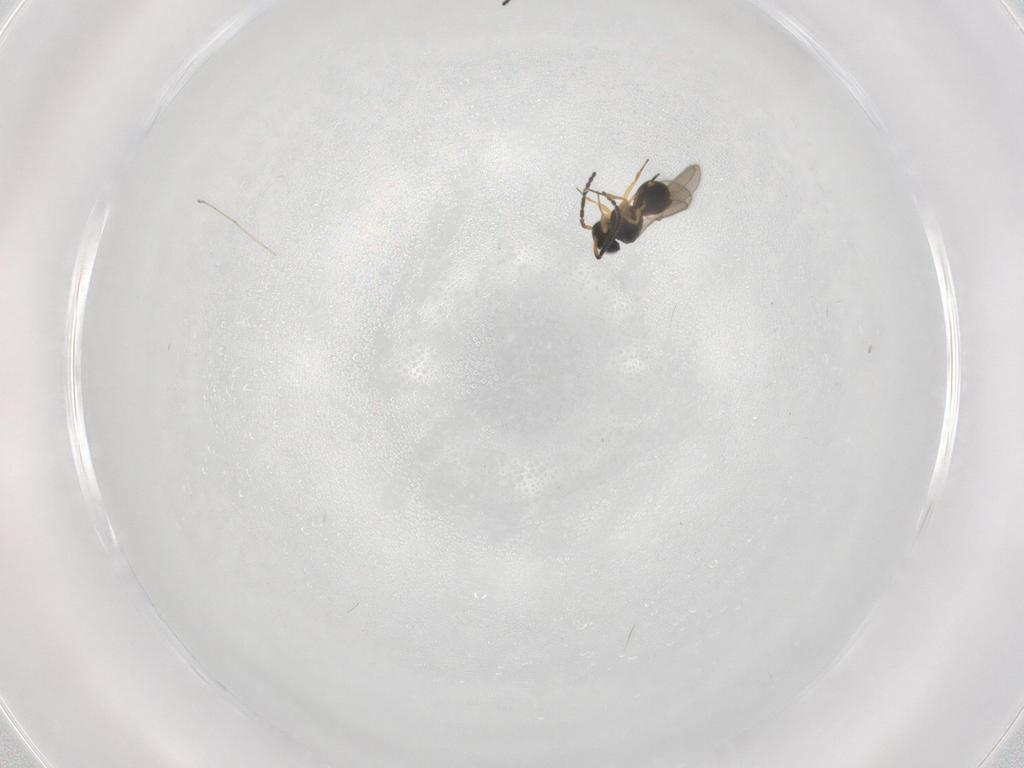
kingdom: Animalia
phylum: Arthropoda
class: Insecta
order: Hymenoptera
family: Scelionidae
